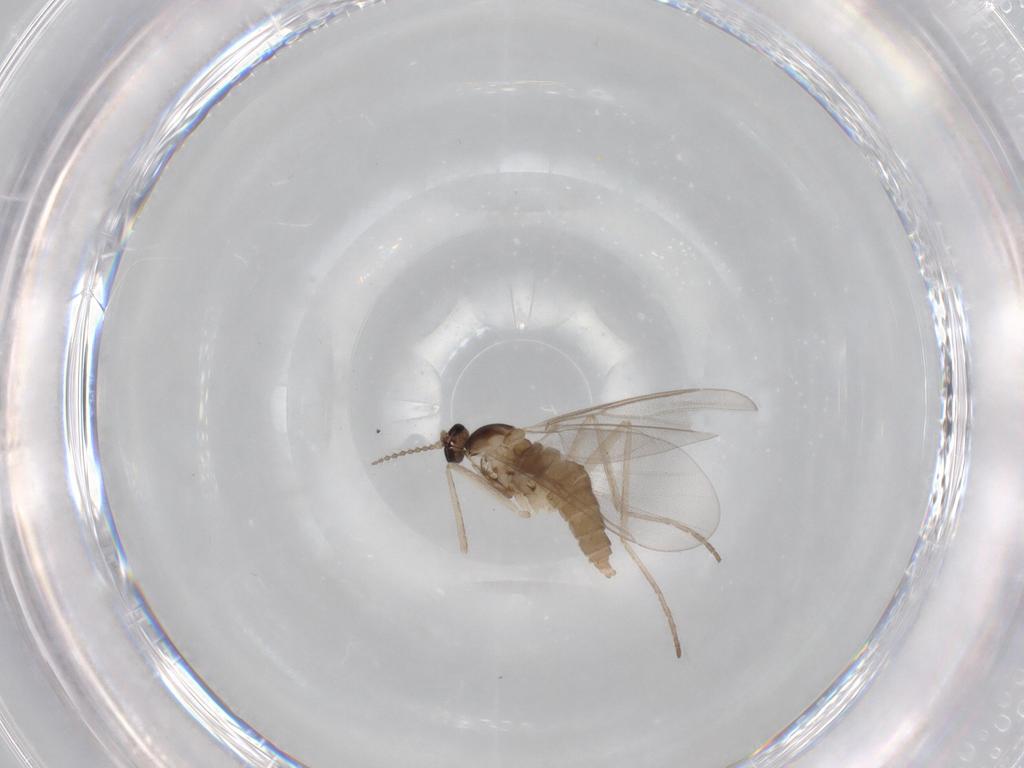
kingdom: Animalia
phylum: Arthropoda
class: Insecta
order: Diptera
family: Cecidomyiidae
